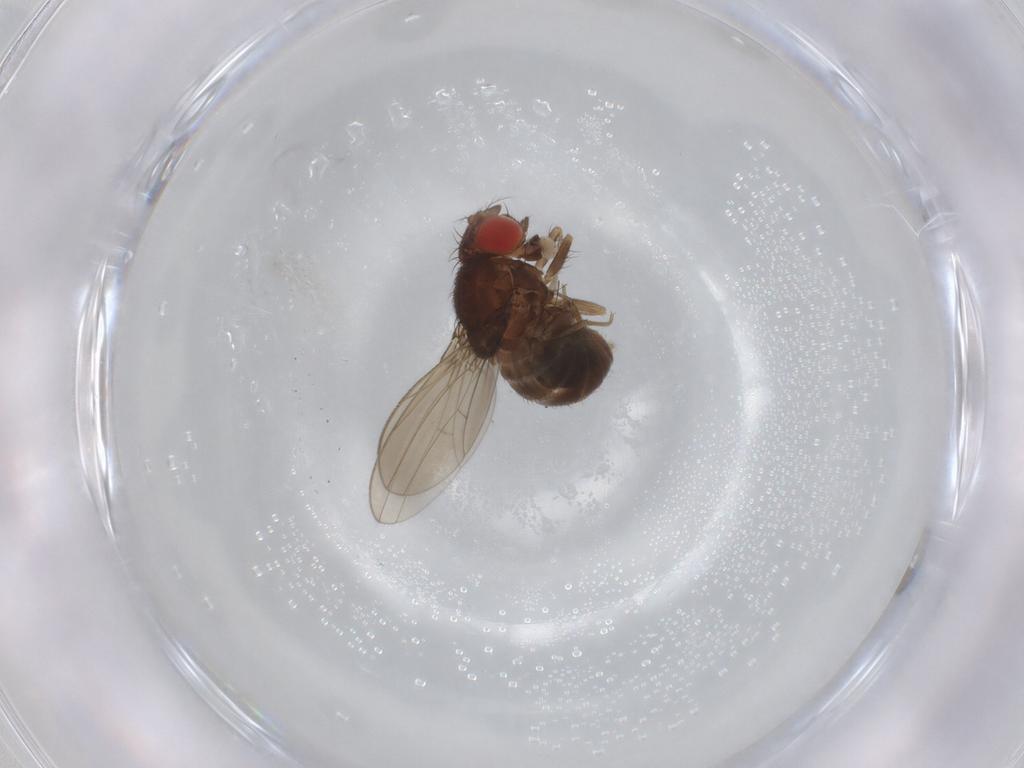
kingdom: Animalia
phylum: Arthropoda
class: Insecta
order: Diptera
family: Drosophilidae
